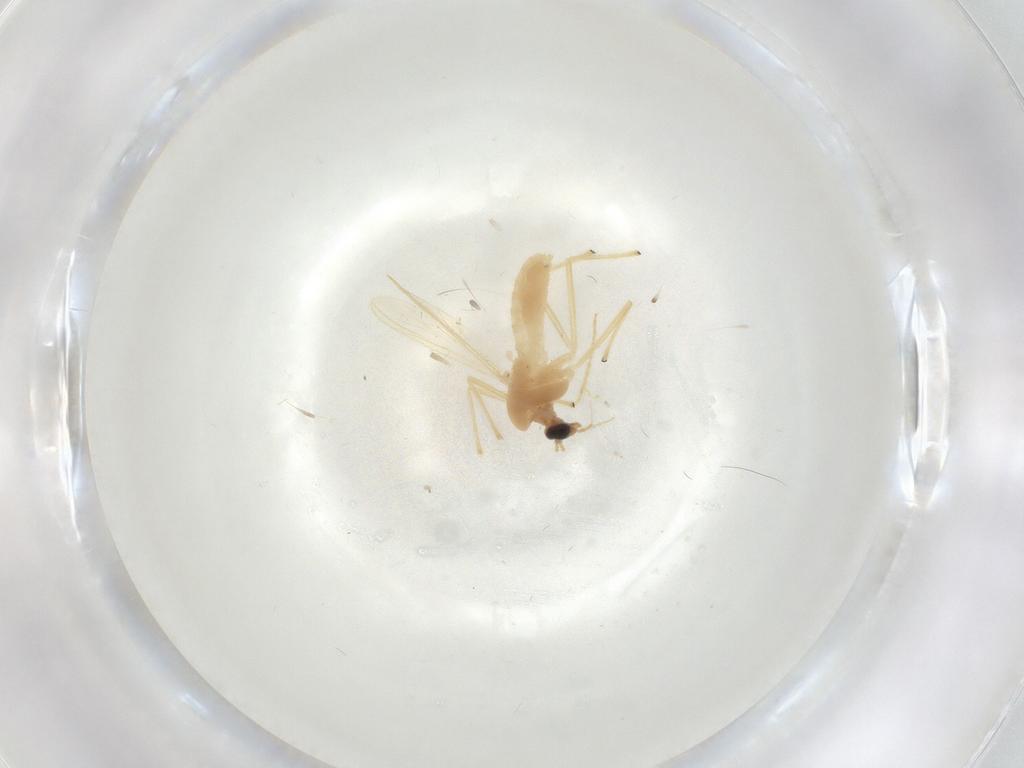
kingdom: Animalia
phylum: Arthropoda
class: Insecta
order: Diptera
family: Chironomidae
